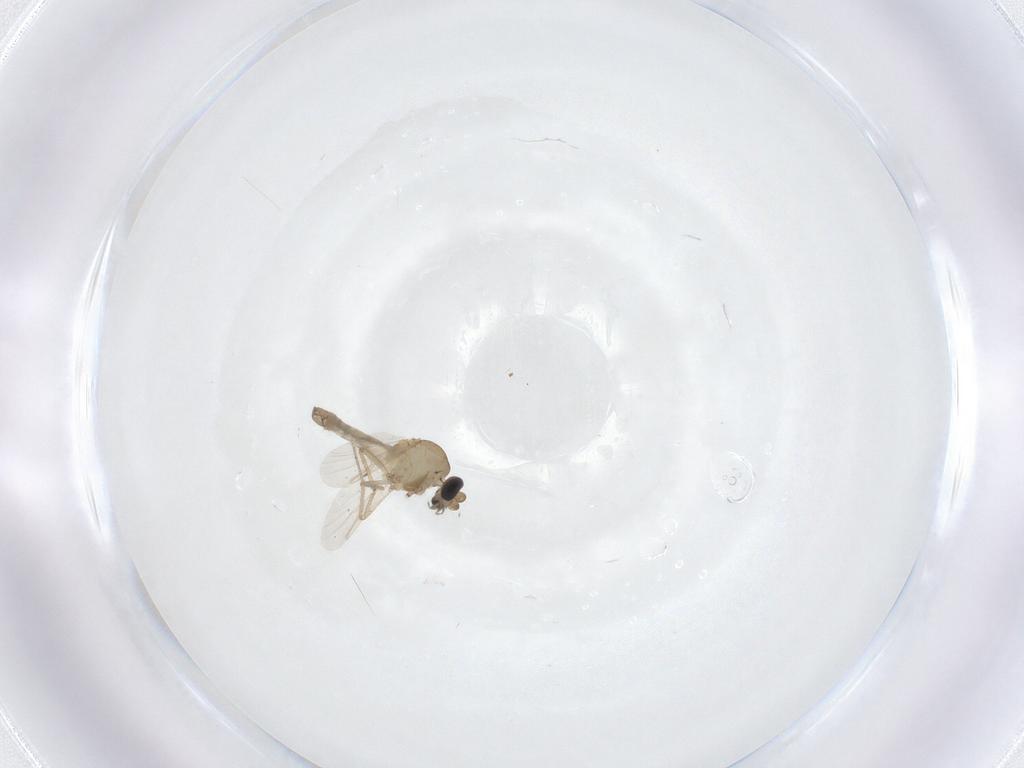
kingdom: Animalia
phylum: Arthropoda
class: Insecta
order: Diptera
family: Ceratopogonidae
